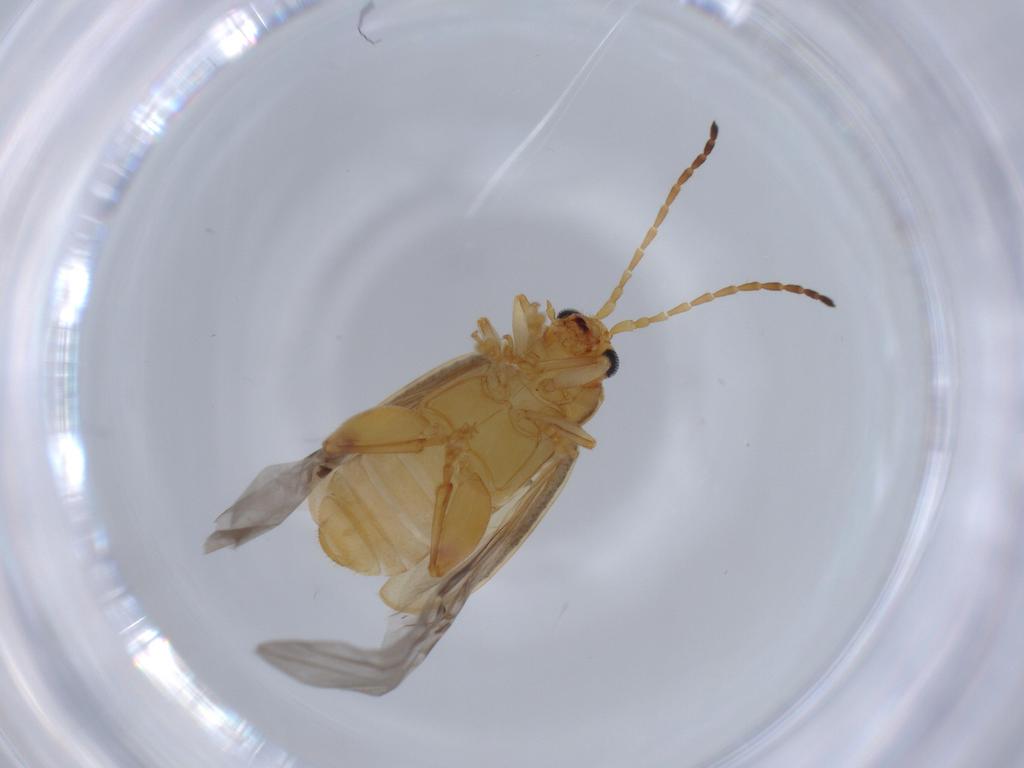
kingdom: Animalia
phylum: Arthropoda
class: Insecta
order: Coleoptera
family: Chrysomelidae
